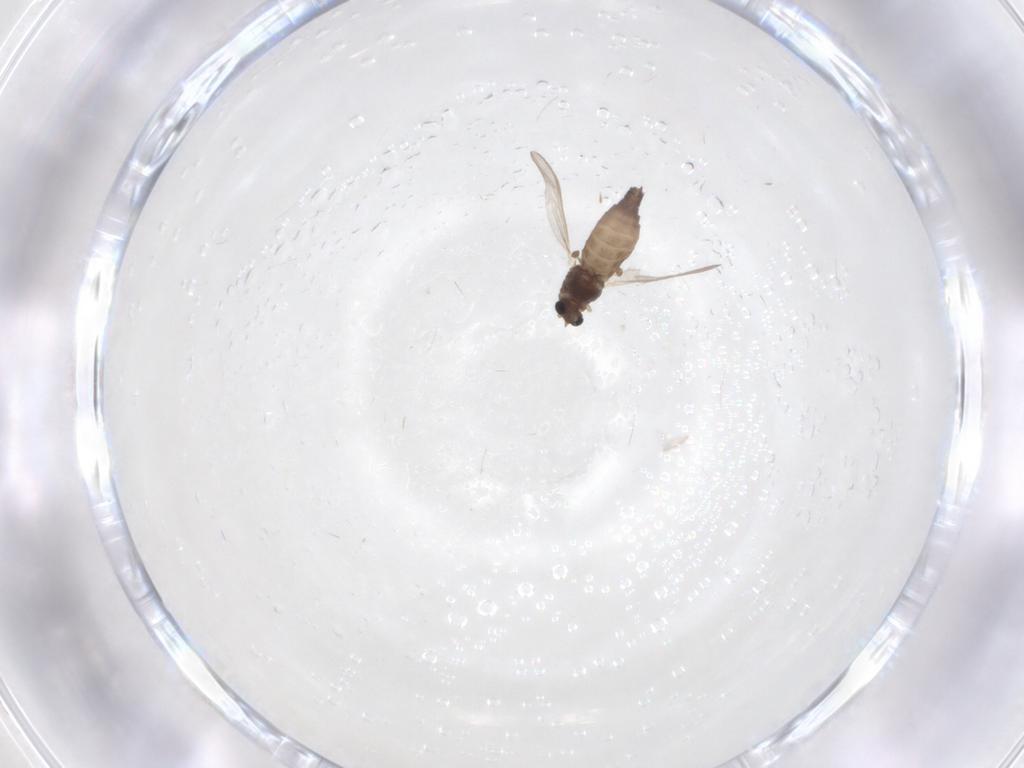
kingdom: Animalia
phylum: Arthropoda
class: Insecta
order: Diptera
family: Chironomidae
